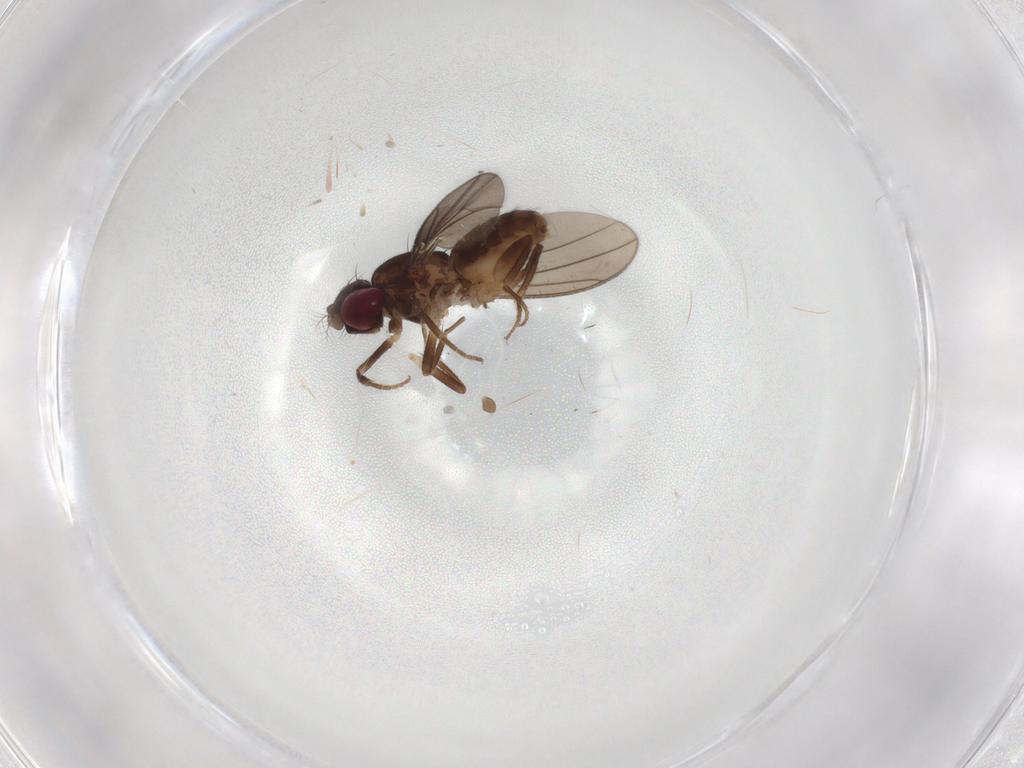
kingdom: Animalia
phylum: Arthropoda
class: Insecta
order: Diptera
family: Drosophilidae
